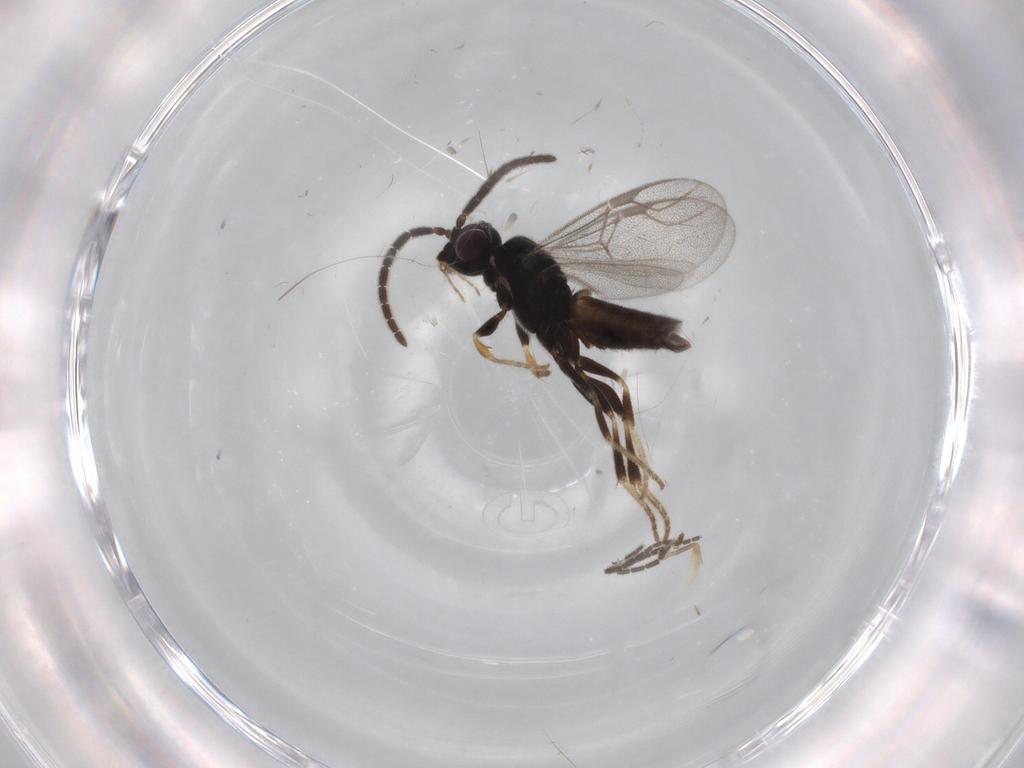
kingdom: Animalia
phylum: Arthropoda
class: Insecta
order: Hymenoptera
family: Dryinidae
